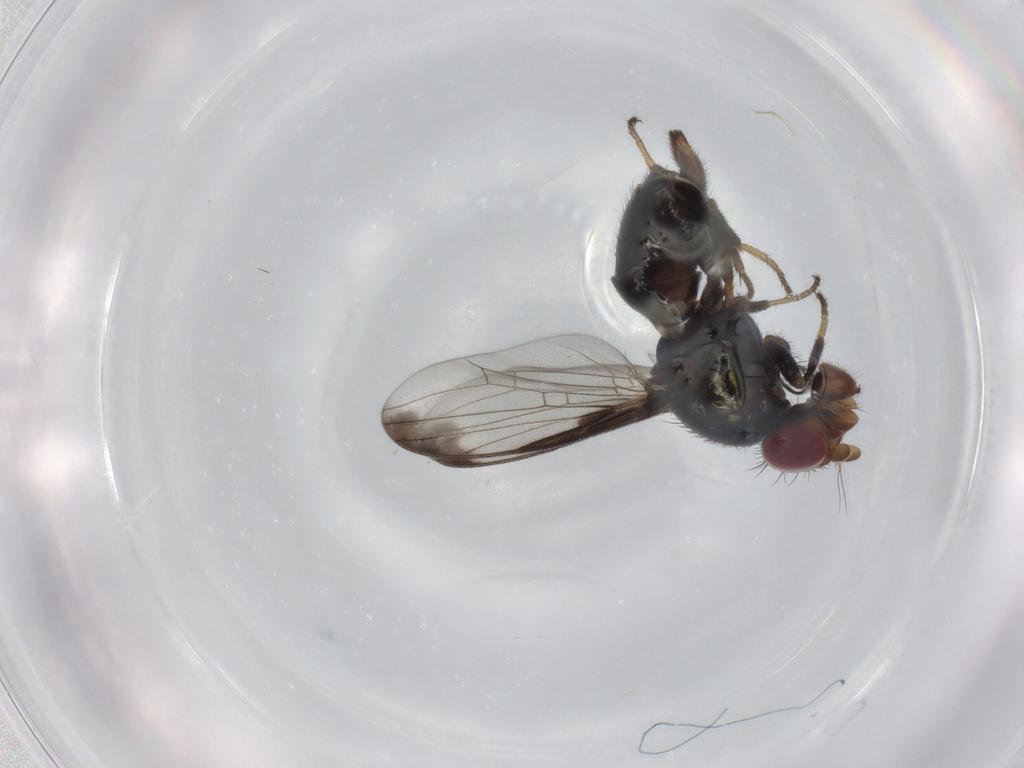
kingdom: Animalia
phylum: Arthropoda
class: Insecta
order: Diptera
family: Ulidiidae
